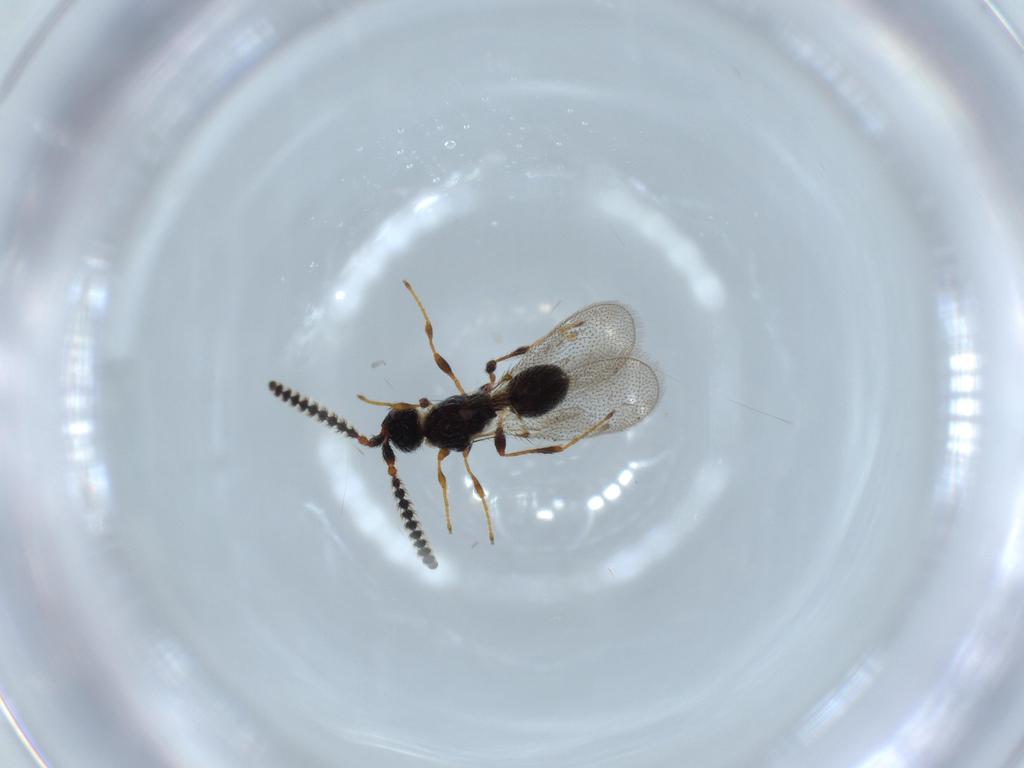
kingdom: Animalia
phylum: Arthropoda
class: Insecta
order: Hymenoptera
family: Diapriidae
